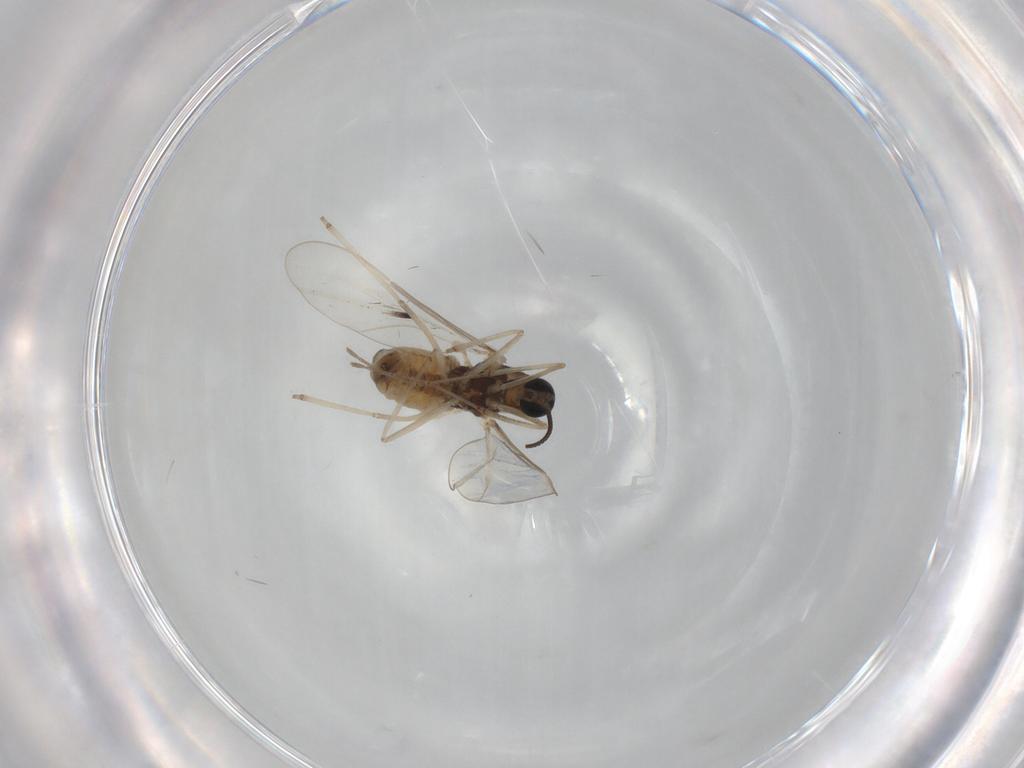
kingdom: Animalia
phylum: Arthropoda
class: Insecta
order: Diptera
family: Cecidomyiidae
